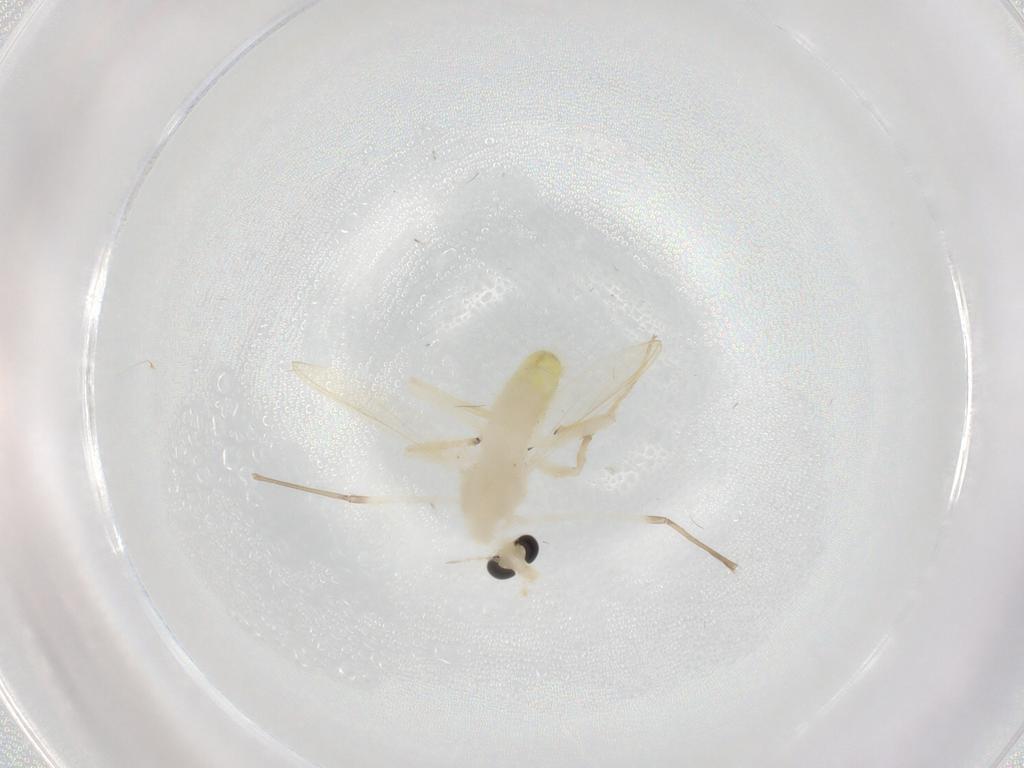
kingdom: Animalia
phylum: Arthropoda
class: Insecta
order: Diptera
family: Chironomidae
